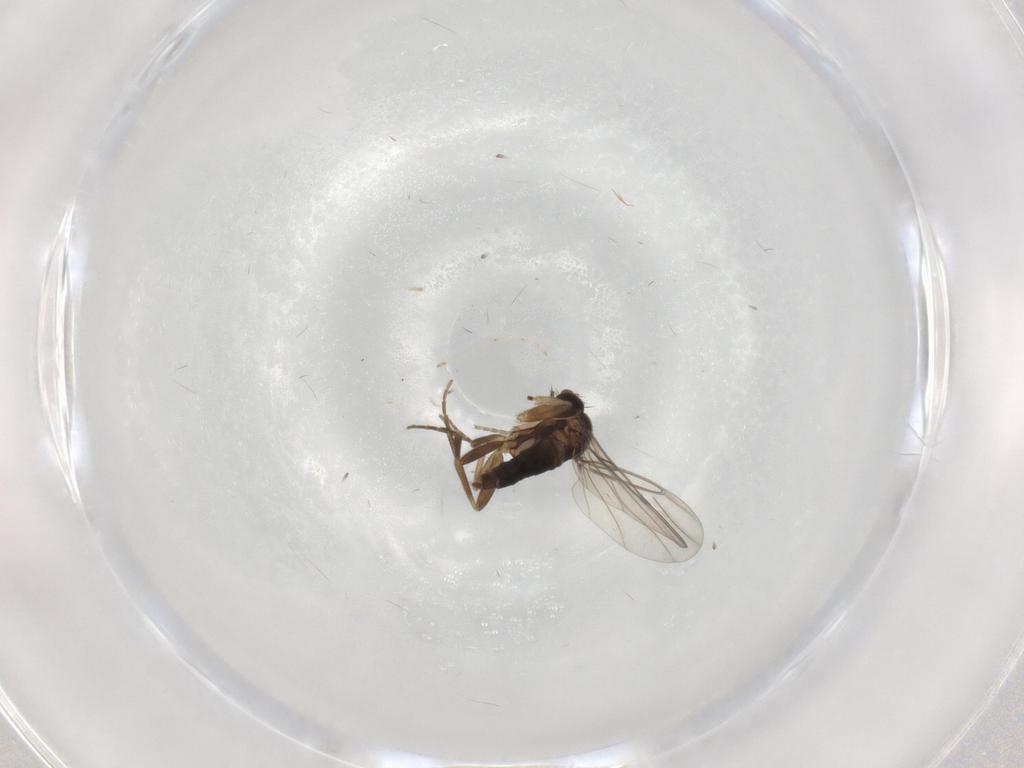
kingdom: Animalia
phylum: Arthropoda
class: Insecta
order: Diptera
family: Phoridae
